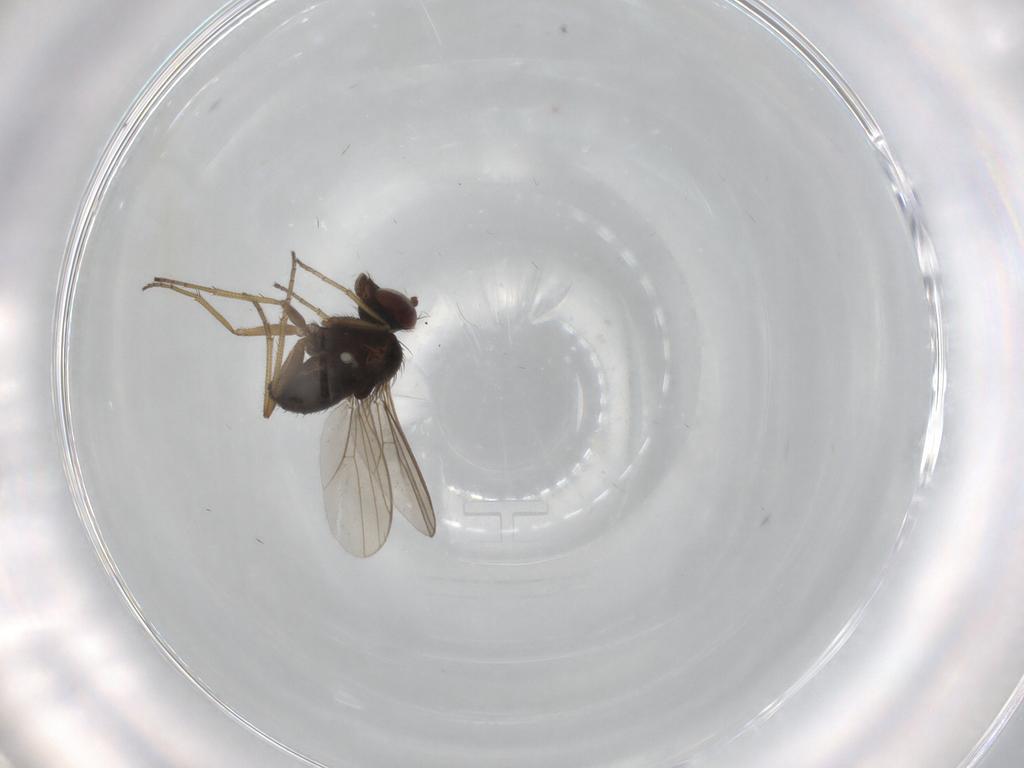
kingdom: Animalia
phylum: Arthropoda
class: Insecta
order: Diptera
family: Dolichopodidae
